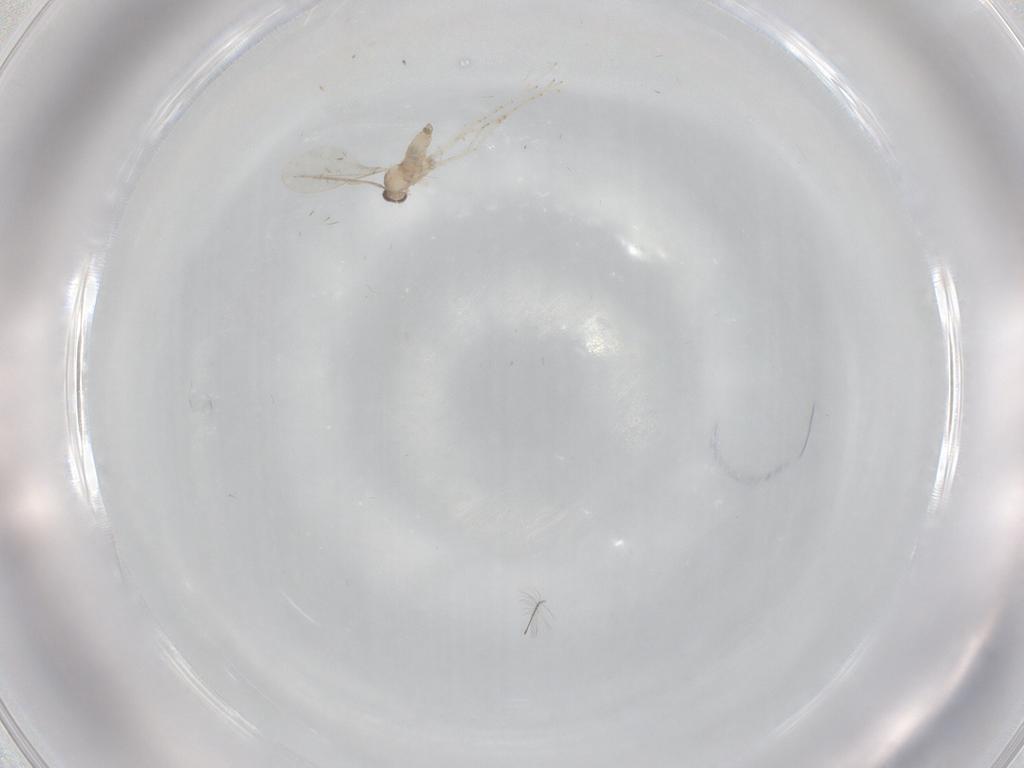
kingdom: Animalia
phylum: Arthropoda
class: Insecta
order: Diptera
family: Cecidomyiidae
